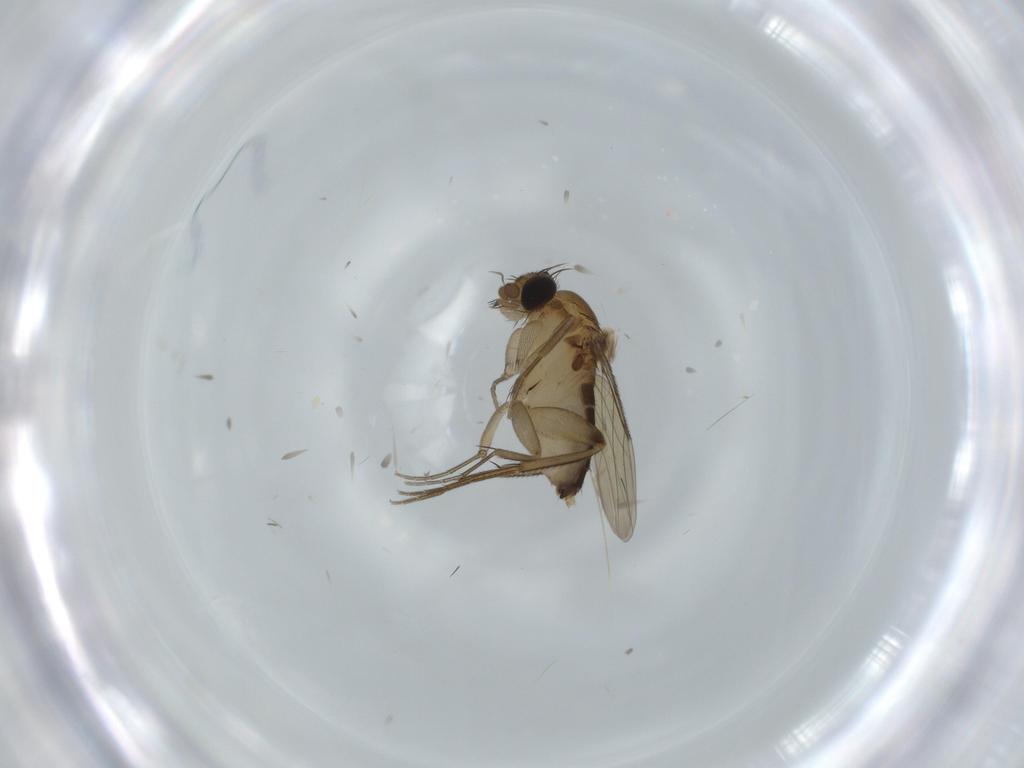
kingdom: Animalia
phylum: Arthropoda
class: Insecta
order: Diptera
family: Phoridae
